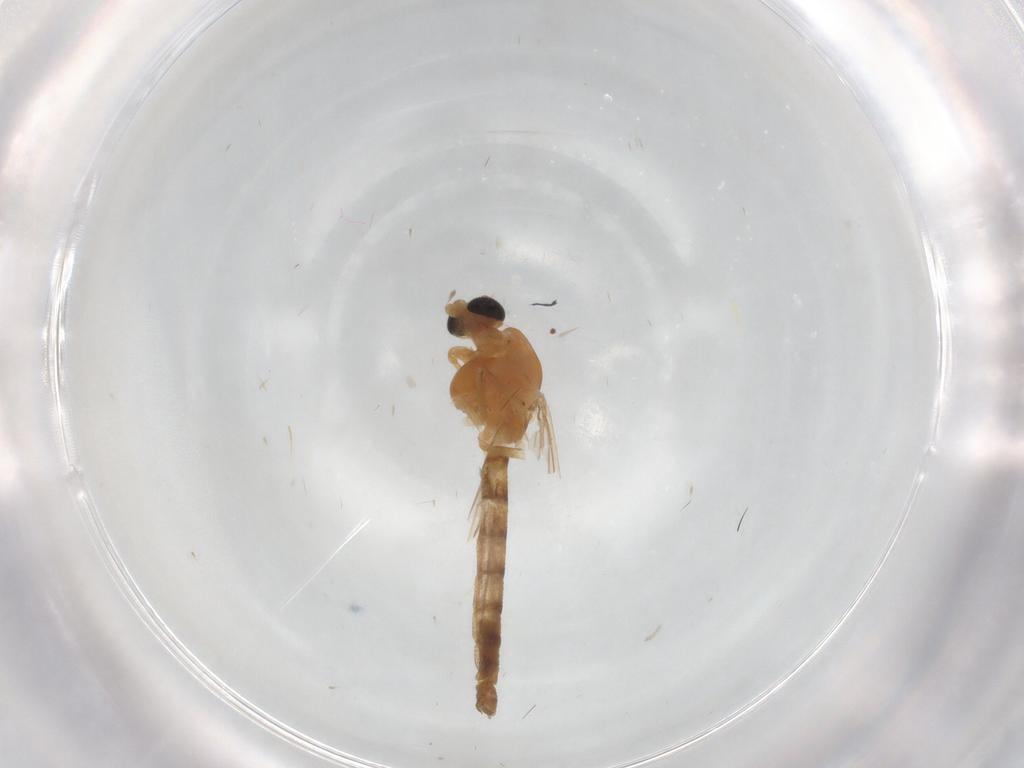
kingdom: Animalia
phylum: Arthropoda
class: Insecta
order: Diptera
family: Chironomidae
